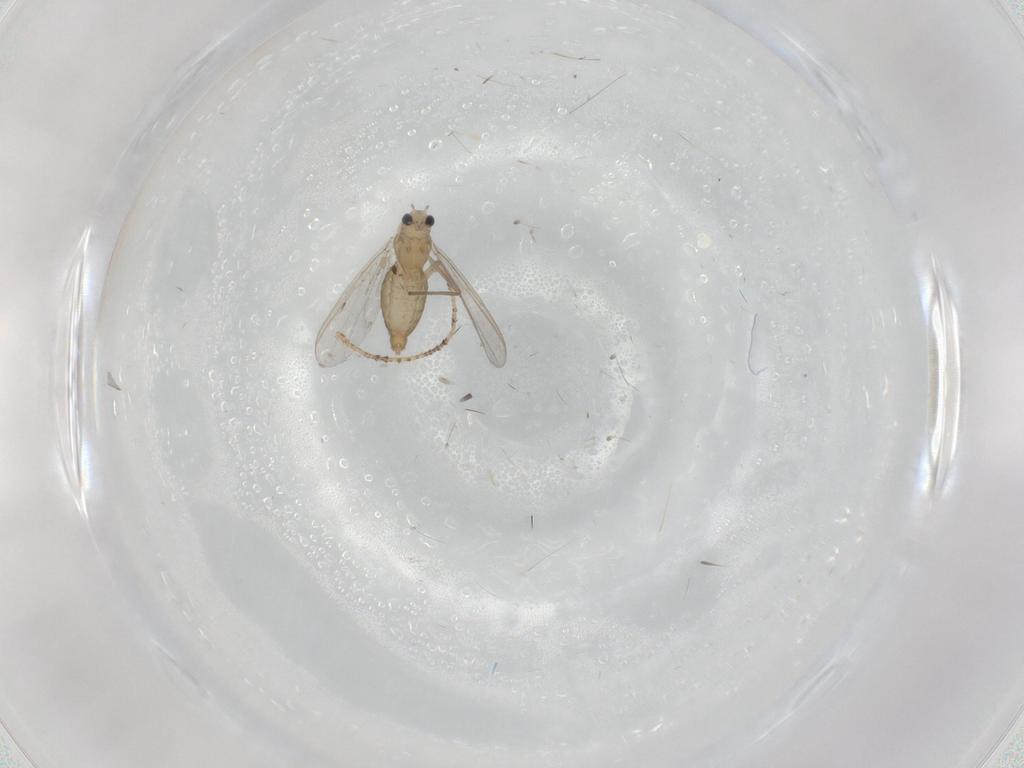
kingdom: Animalia
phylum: Arthropoda
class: Insecta
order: Diptera
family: Chironomidae
